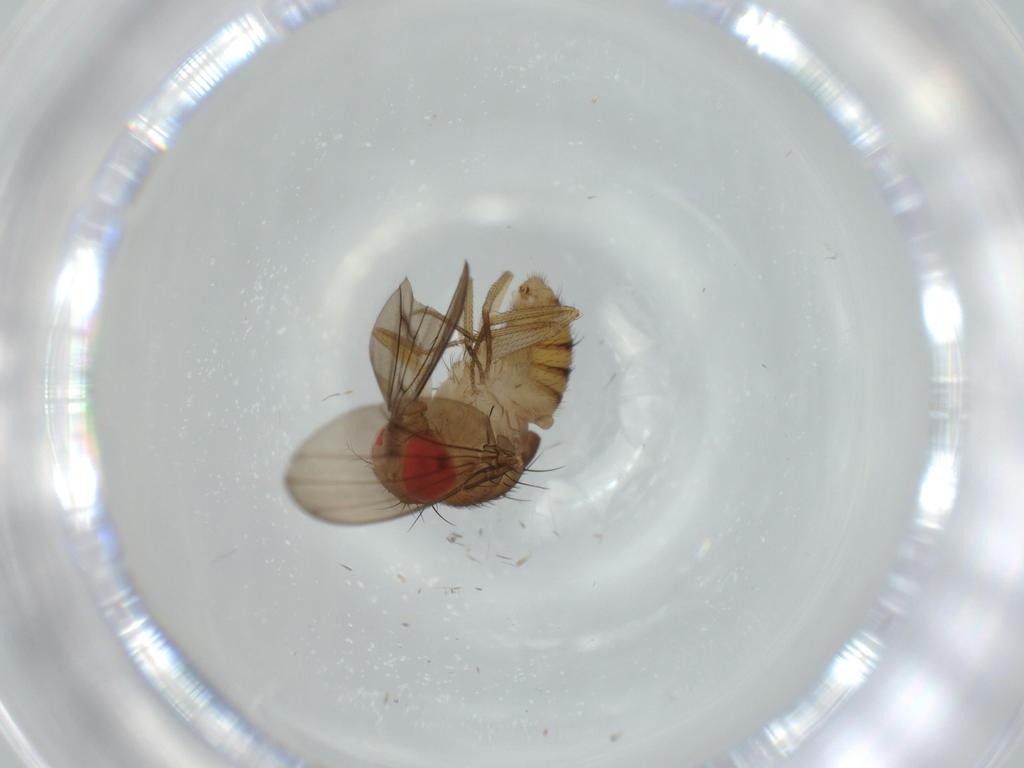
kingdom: Animalia
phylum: Arthropoda
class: Insecta
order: Diptera
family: Drosophilidae
